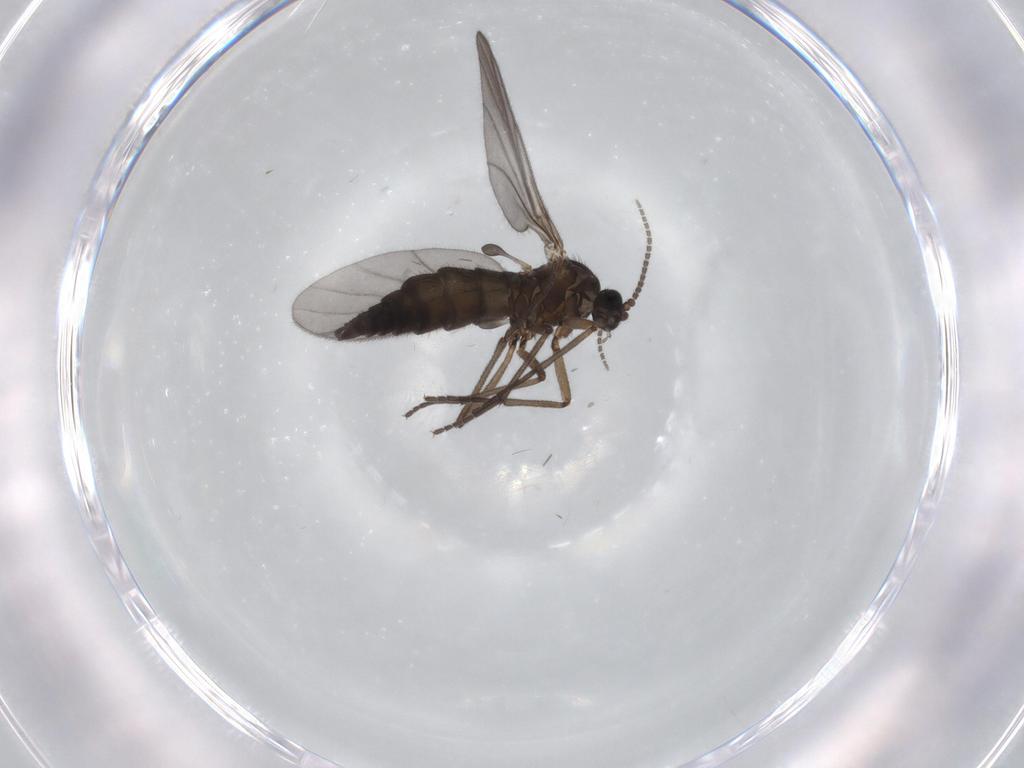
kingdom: Animalia
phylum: Arthropoda
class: Insecta
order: Diptera
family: Sciaridae
